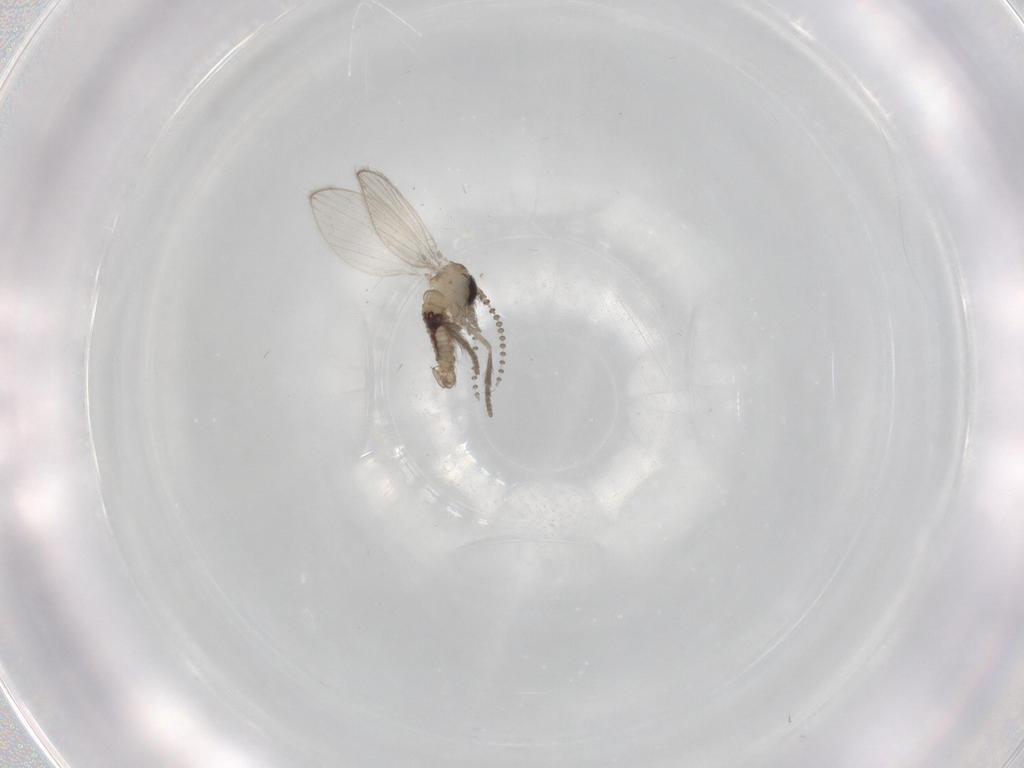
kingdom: Animalia
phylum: Arthropoda
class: Insecta
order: Diptera
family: Psychodidae
